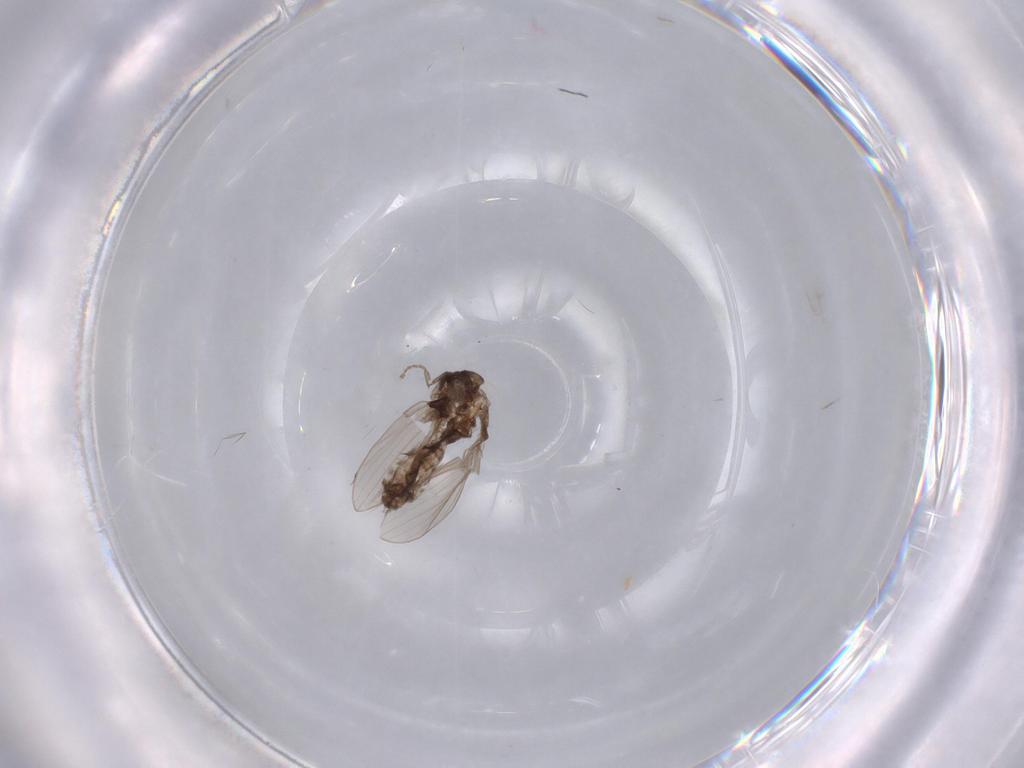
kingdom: Animalia
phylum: Arthropoda
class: Insecta
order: Diptera
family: Psychodidae
